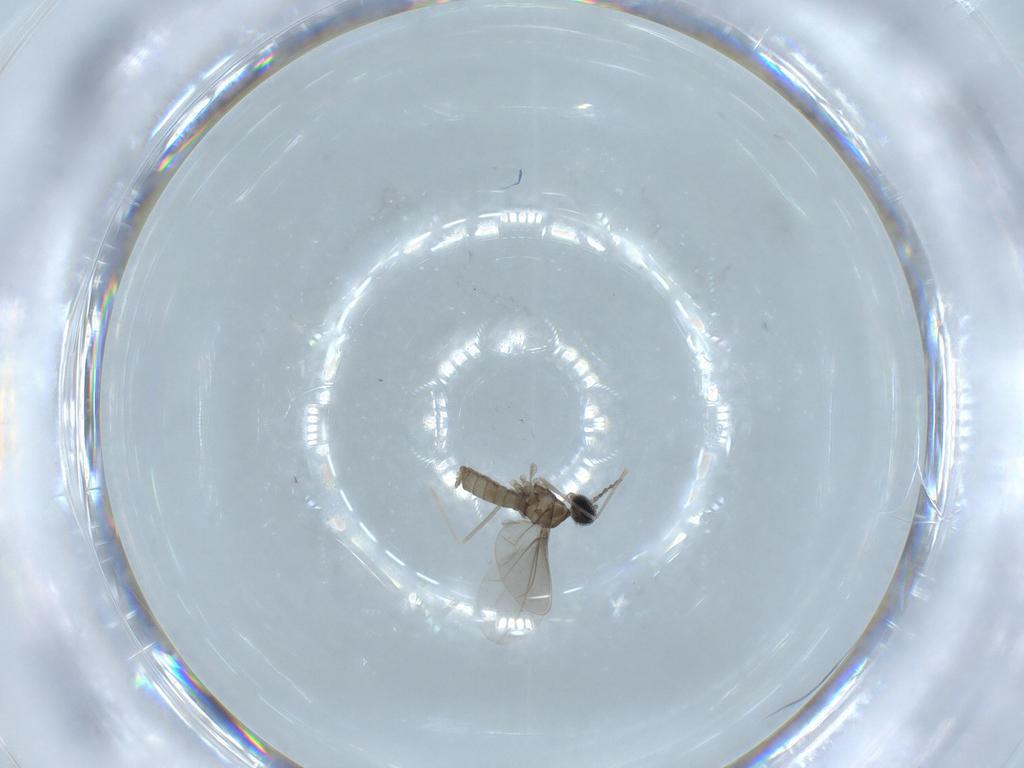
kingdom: Animalia
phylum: Arthropoda
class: Insecta
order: Diptera
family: Cecidomyiidae
